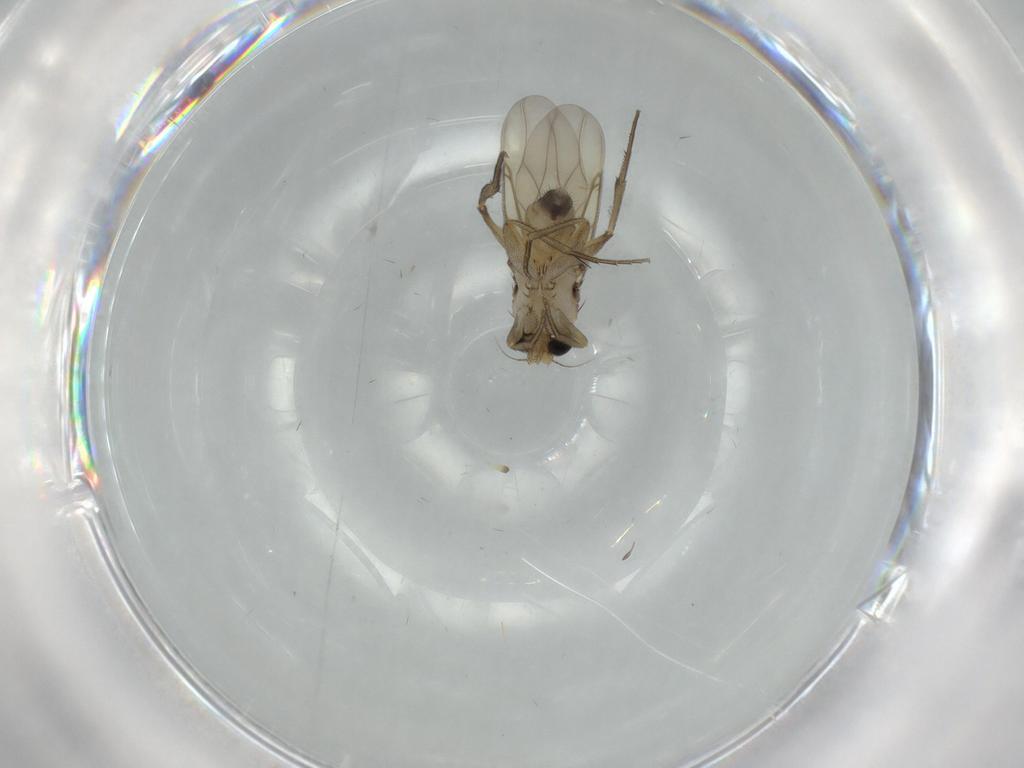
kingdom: Animalia
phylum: Arthropoda
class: Insecta
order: Diptera
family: Phoridae
